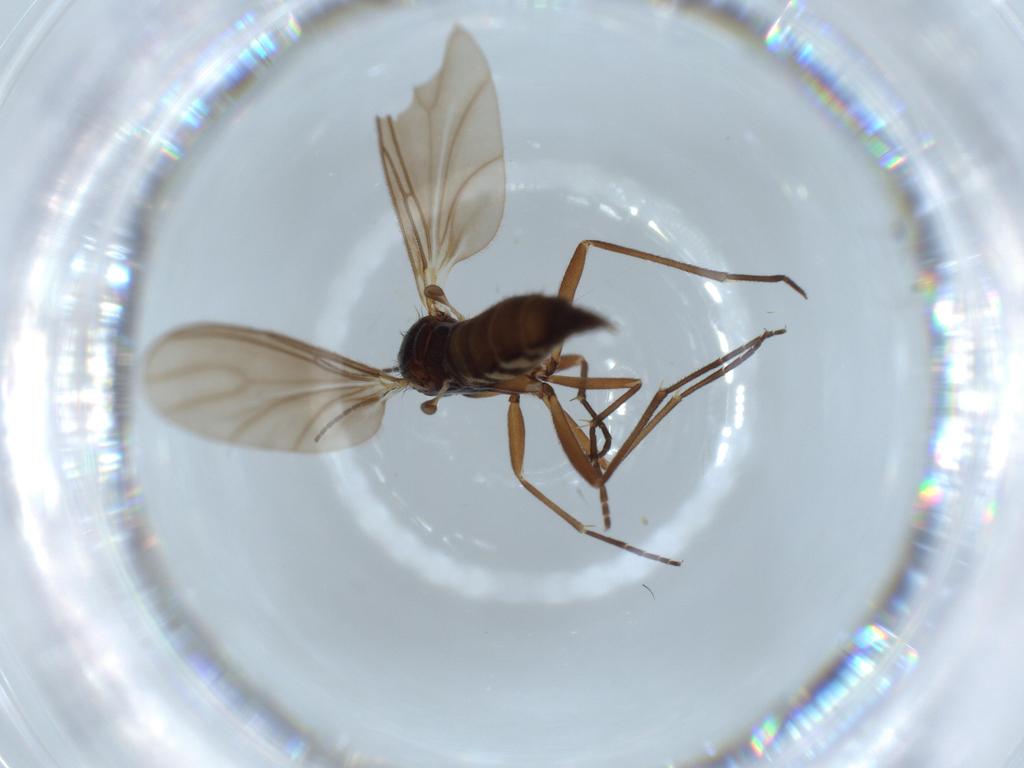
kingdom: Animalia
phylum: Arthropoda
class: Insecta
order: Diptera
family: Sciaridae
